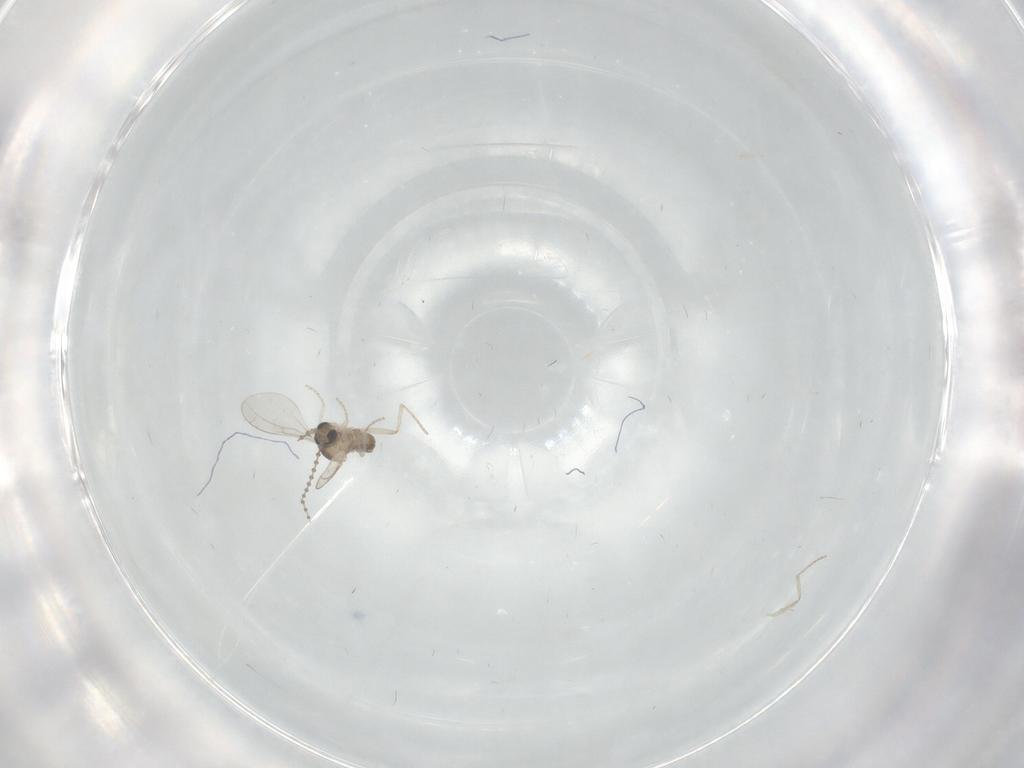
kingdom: Animalia
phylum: Arthropoda
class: Insecta
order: Diptera
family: Cecidomyiidae
